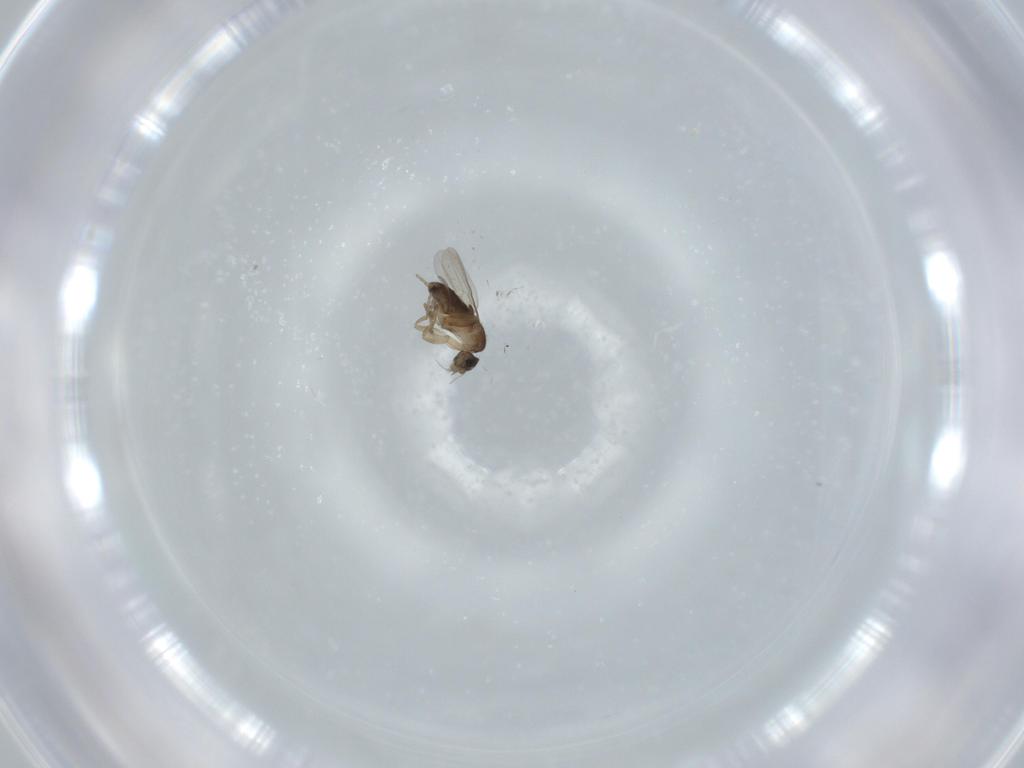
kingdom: Animalia
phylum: Arthropoda
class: Insecta
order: Diptera
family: Phoridae
